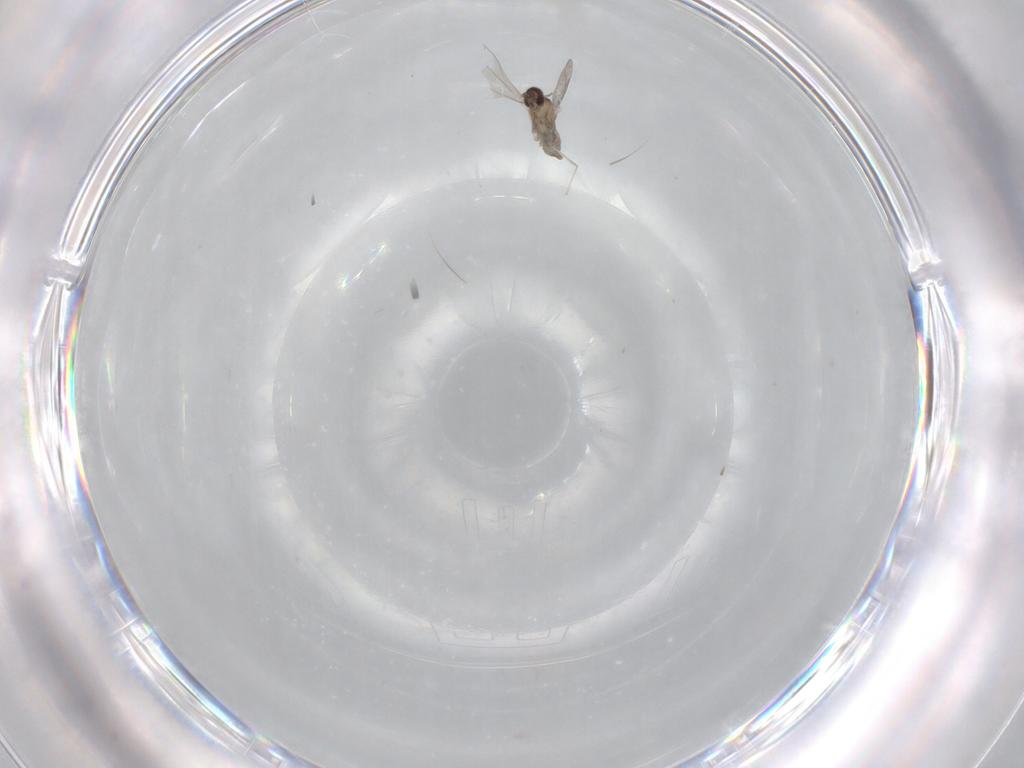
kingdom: Animalia
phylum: Arthropoda
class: Insecta
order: Diptera
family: Cecidomyiidae
